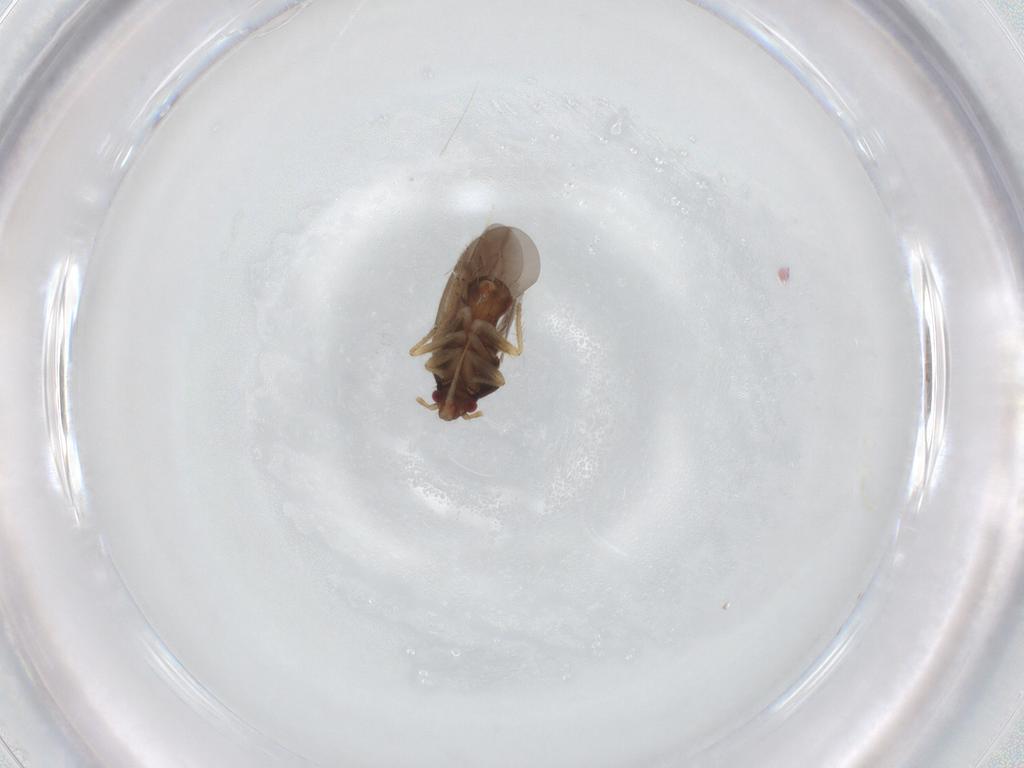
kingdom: Animalia
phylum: Arthropoda
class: Insecta
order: Hemiptera
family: Ceratocombidae
